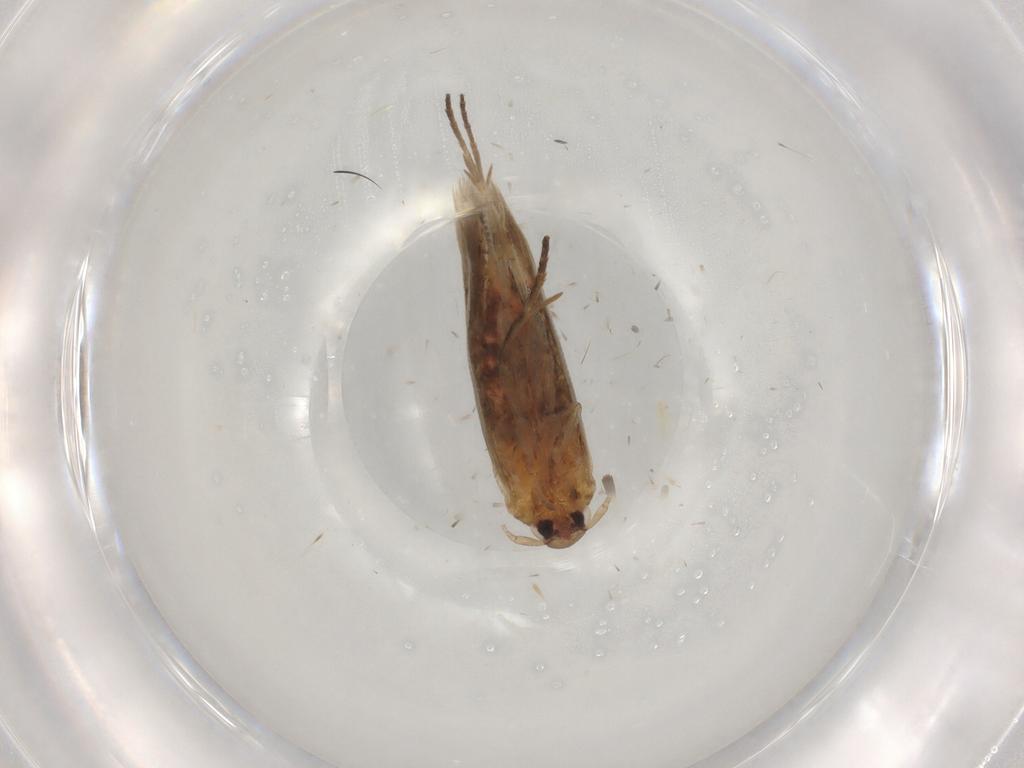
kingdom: Animalia
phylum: Arthropoda
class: Insecta
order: Lepidoptera
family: Cosmopterigidae
